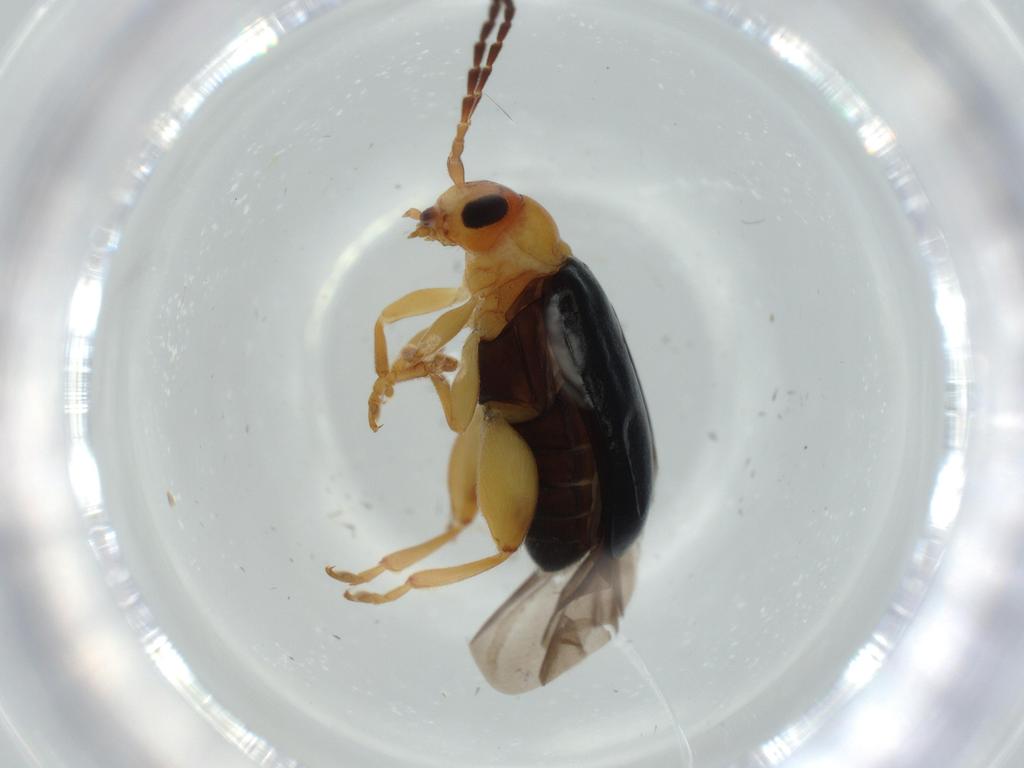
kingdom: Animalia
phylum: Arthropoda
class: Insecta
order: Coleoptera
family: Chrysomelidae
